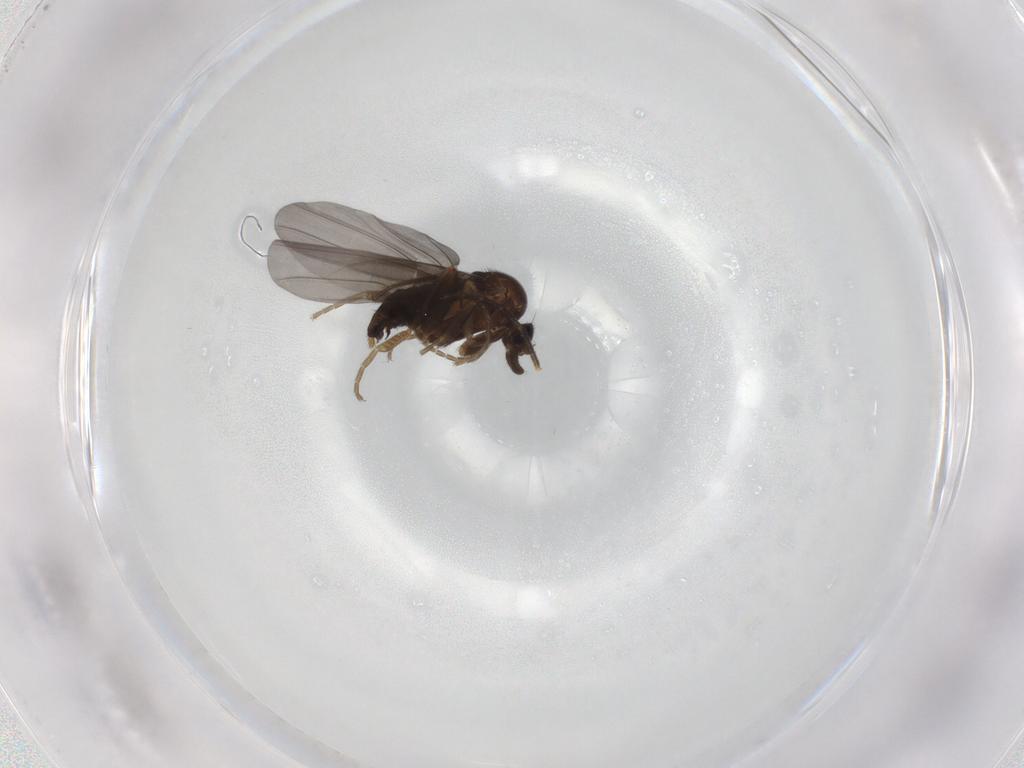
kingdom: Animalia
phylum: Arthropoda
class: Insecta
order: Diptera
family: Phoridae
